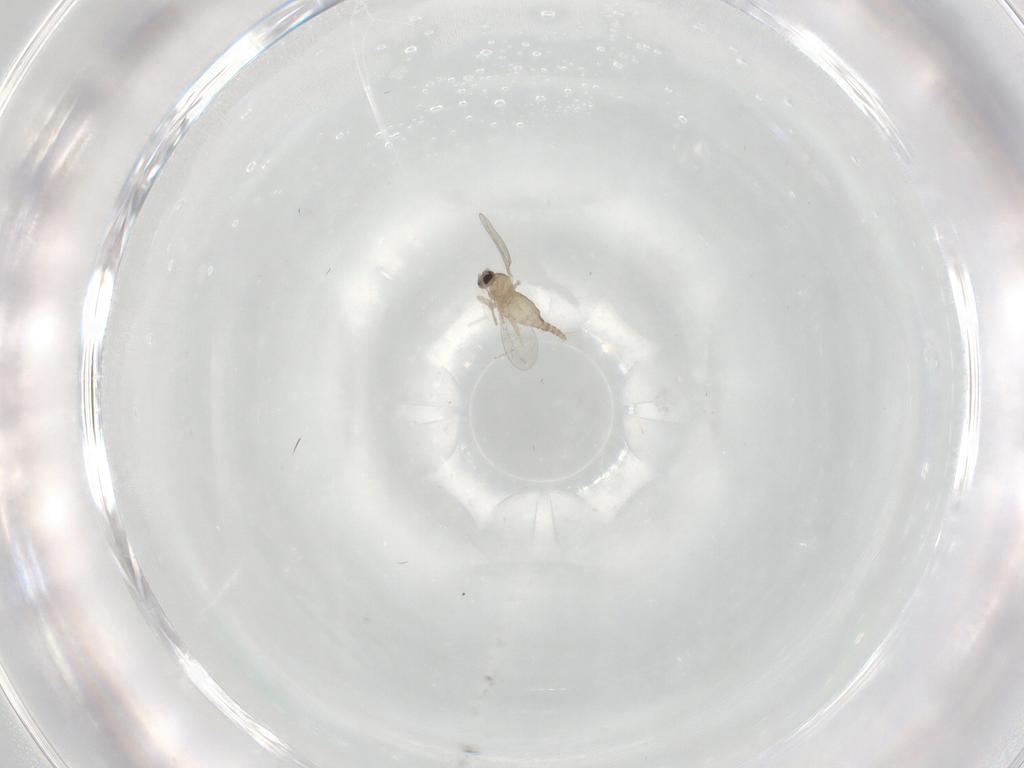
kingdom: Animalia
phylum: Arthropoda
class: Insecta
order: Diptera
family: Cecidomyiidae
